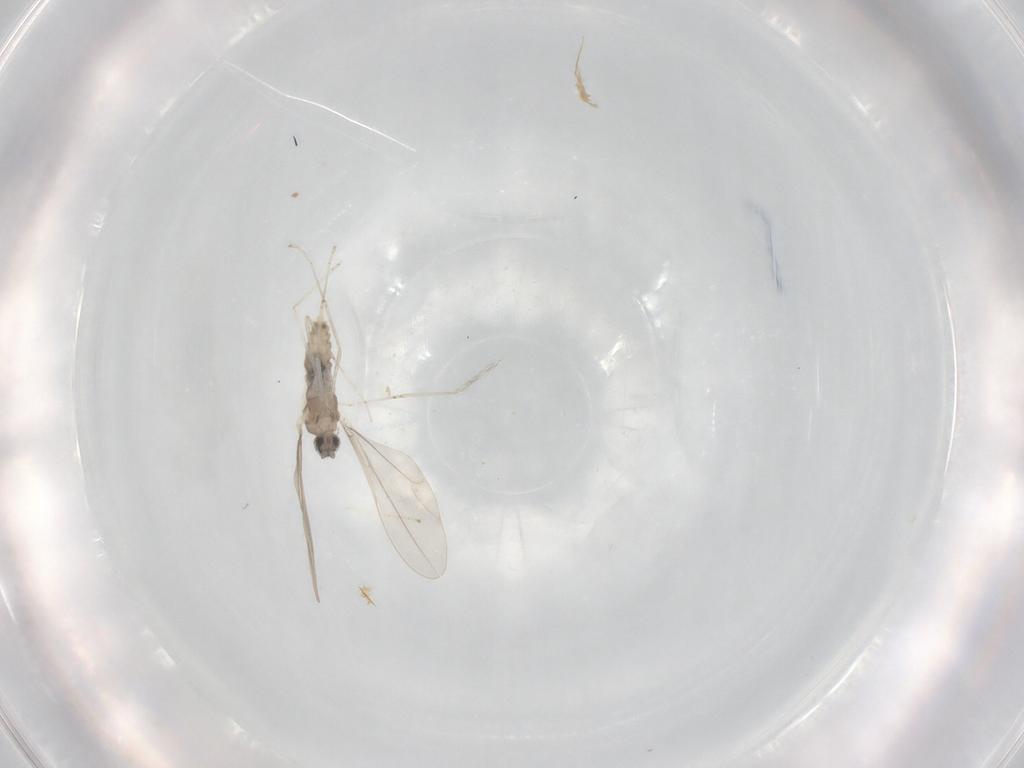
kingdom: Animalia
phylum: Arthropoda
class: Insecta
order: Diptera
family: Cecidomyiidae
